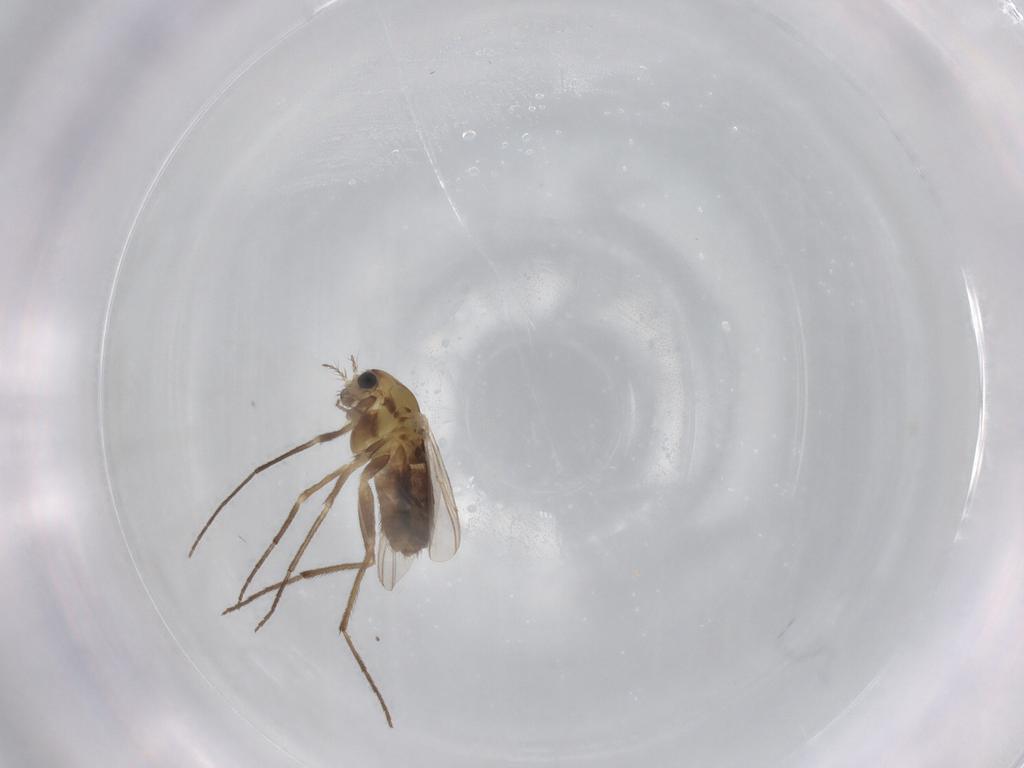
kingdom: Animalia
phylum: Arthropoda
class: Insecta
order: Diptera
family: Chironomidae
